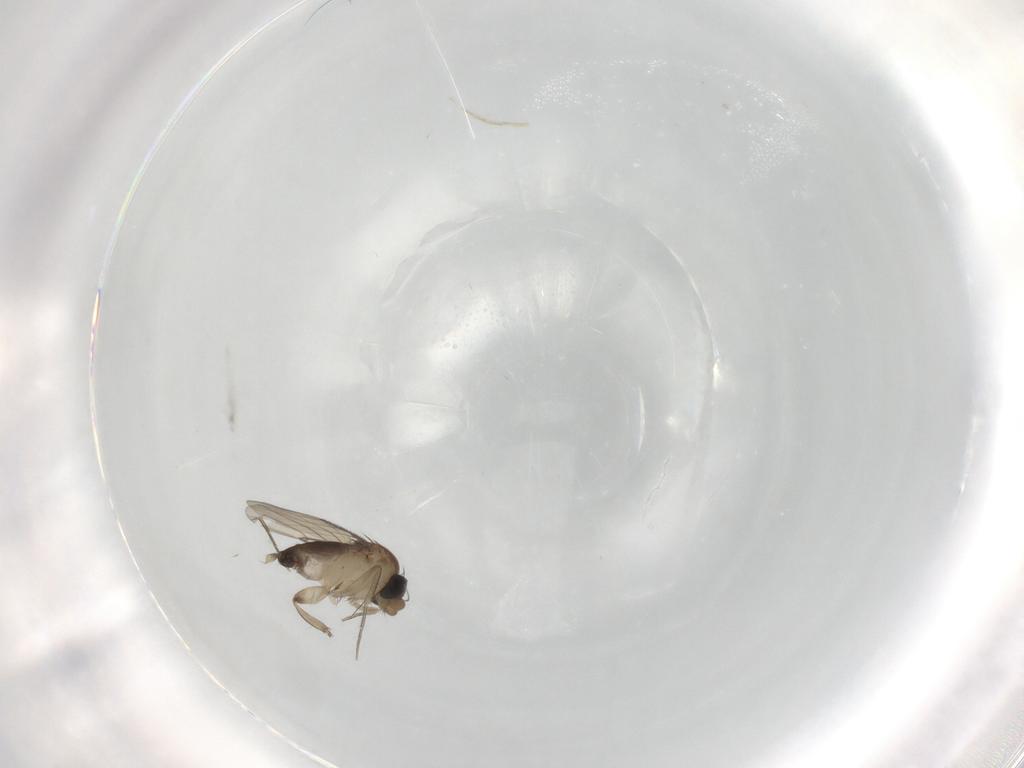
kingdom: Animalia
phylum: Arthropoda
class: Insecta
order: Diptera
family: Phoridae
